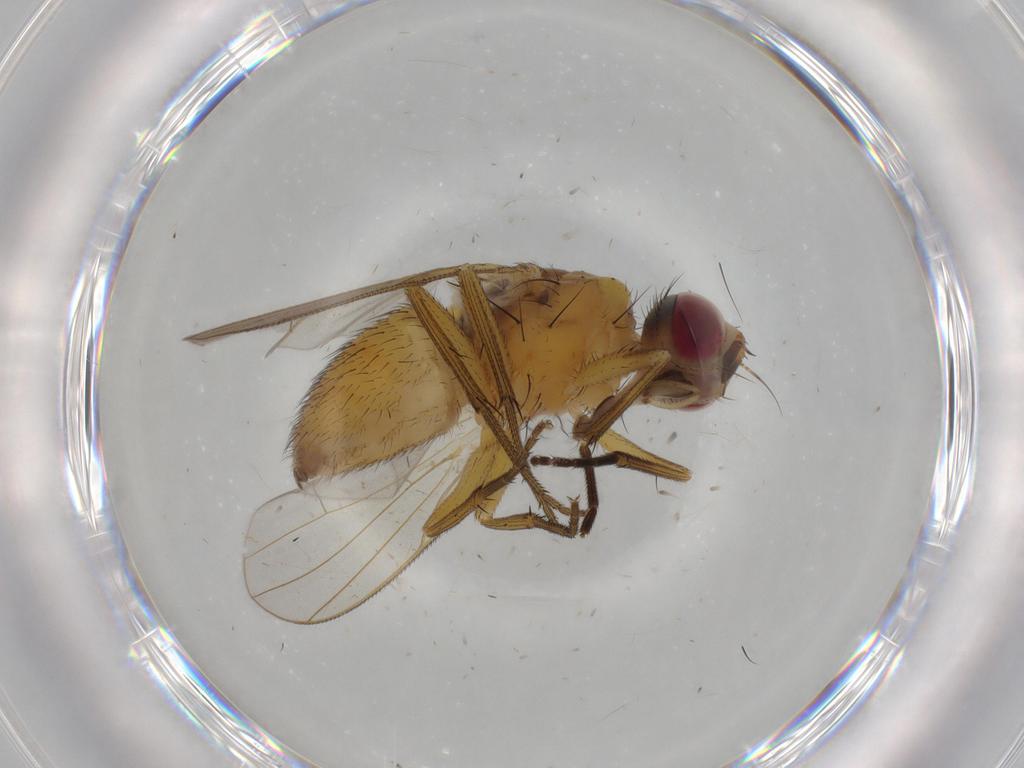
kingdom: Animalia
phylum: Arthropoda
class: Insecta
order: Diptera
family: Muscidae
